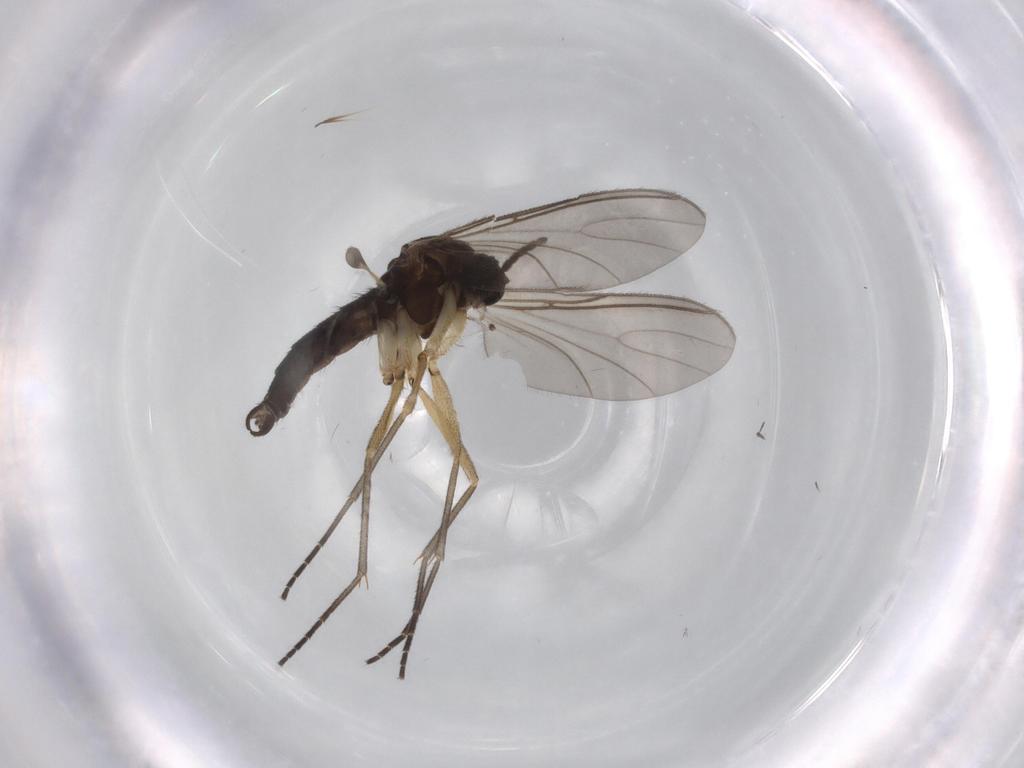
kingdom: Animalia
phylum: Arthropoda
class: Insecta
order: Diptera
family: Sciaridae
